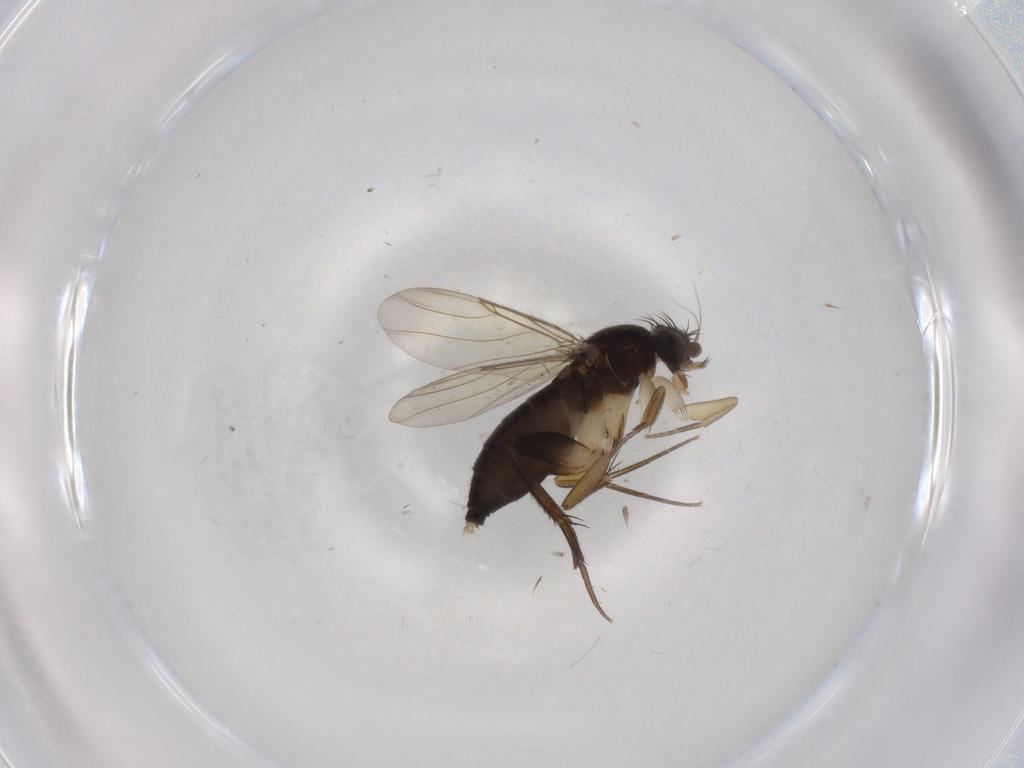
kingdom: Animalia
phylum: Arthropoda
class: Insecta
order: Diptera
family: Phoridae
